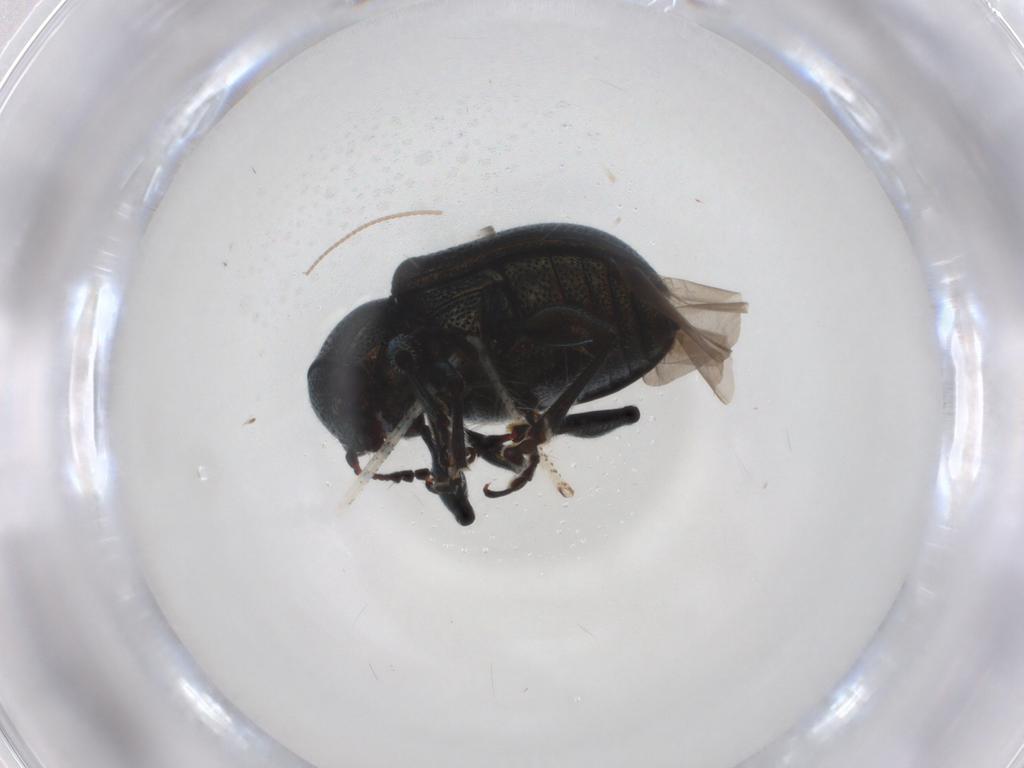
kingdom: Animalia
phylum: Arthropoda
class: Insecta
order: Coleoptera
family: Chrysomelidae
